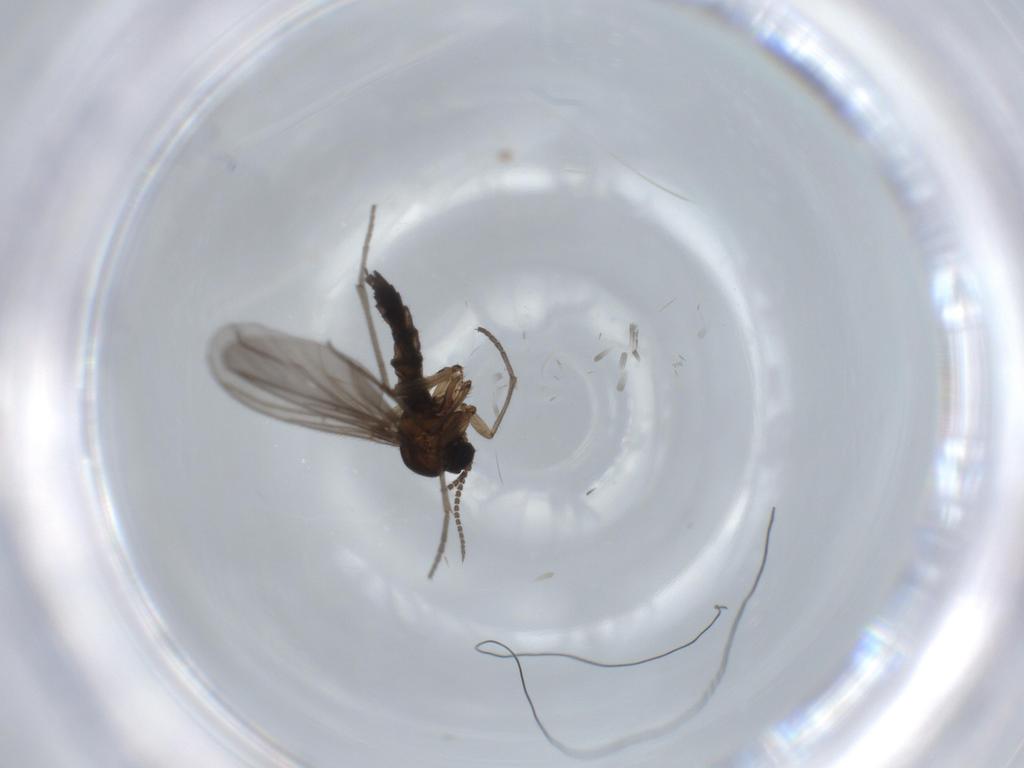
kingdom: Animalia
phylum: Arthropoda
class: Insecta
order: Diptera
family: Sciaridae
